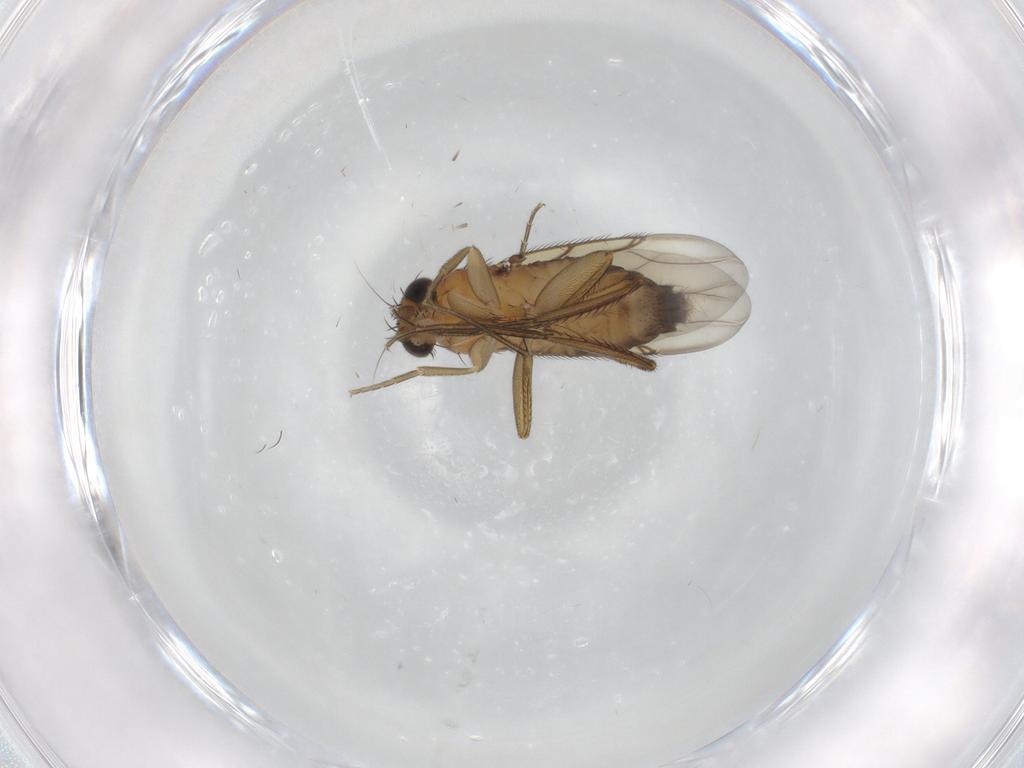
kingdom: Animalia
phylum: Arthropoda
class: Insecta
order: Diptera
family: Phoridae
